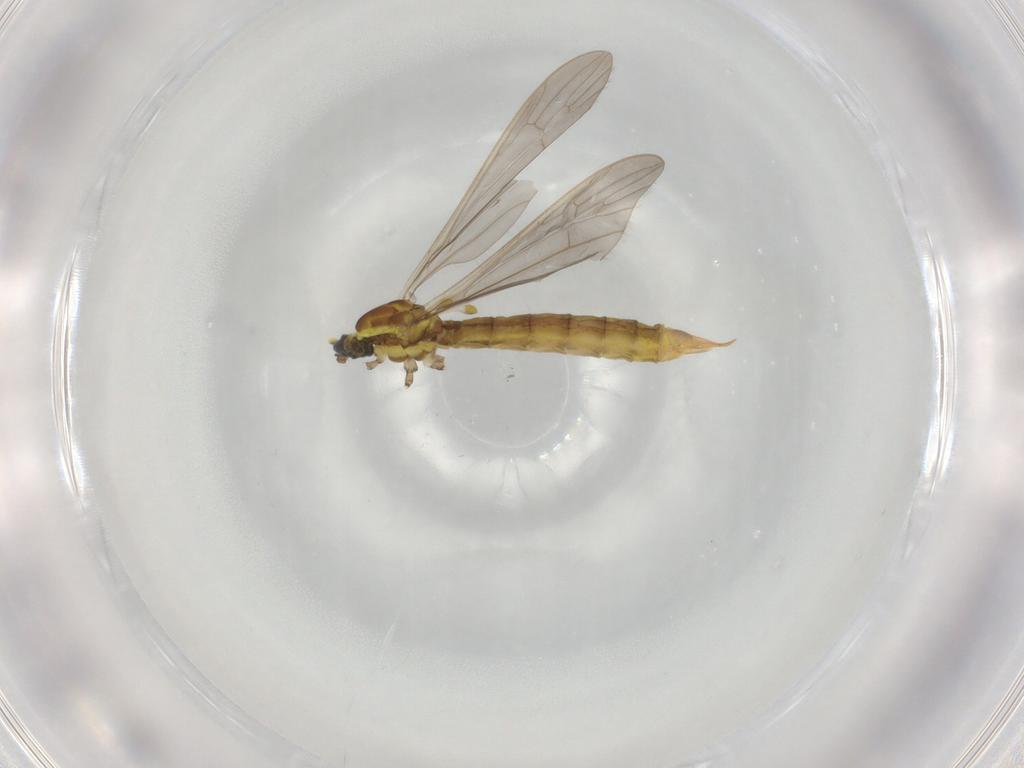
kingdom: Animalia
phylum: Arthropoda
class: Insecta
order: Diptera
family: Limoniidae
